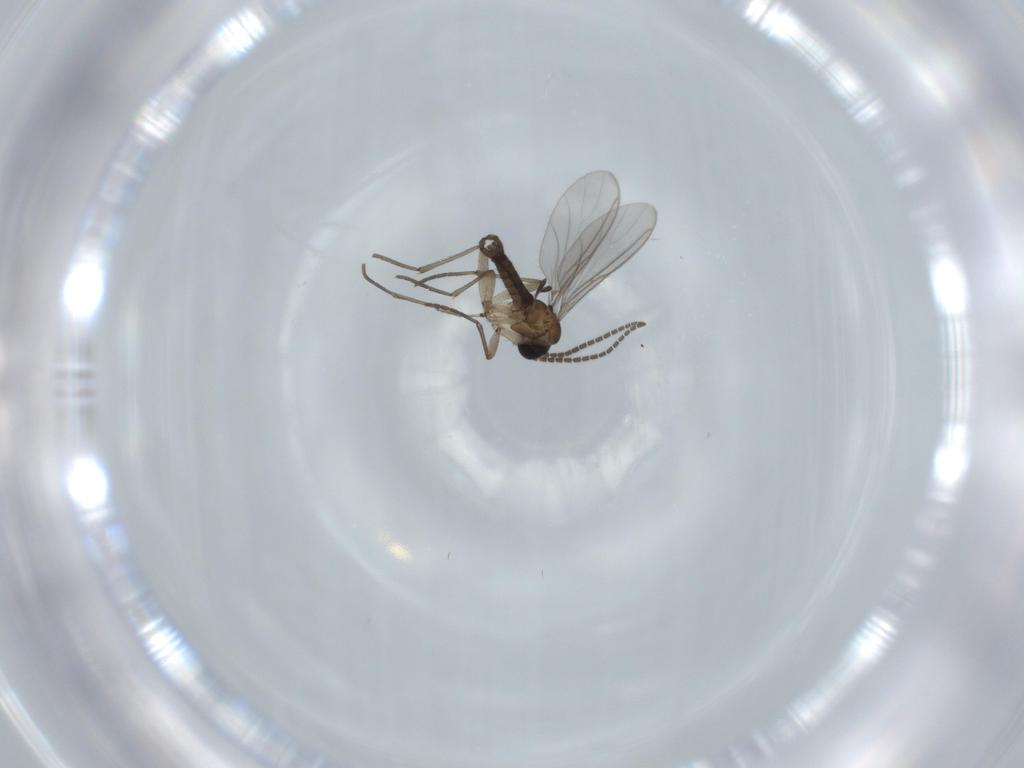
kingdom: Animalia
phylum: Arthropoda
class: Insecta
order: Diptera
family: Sciaridae
